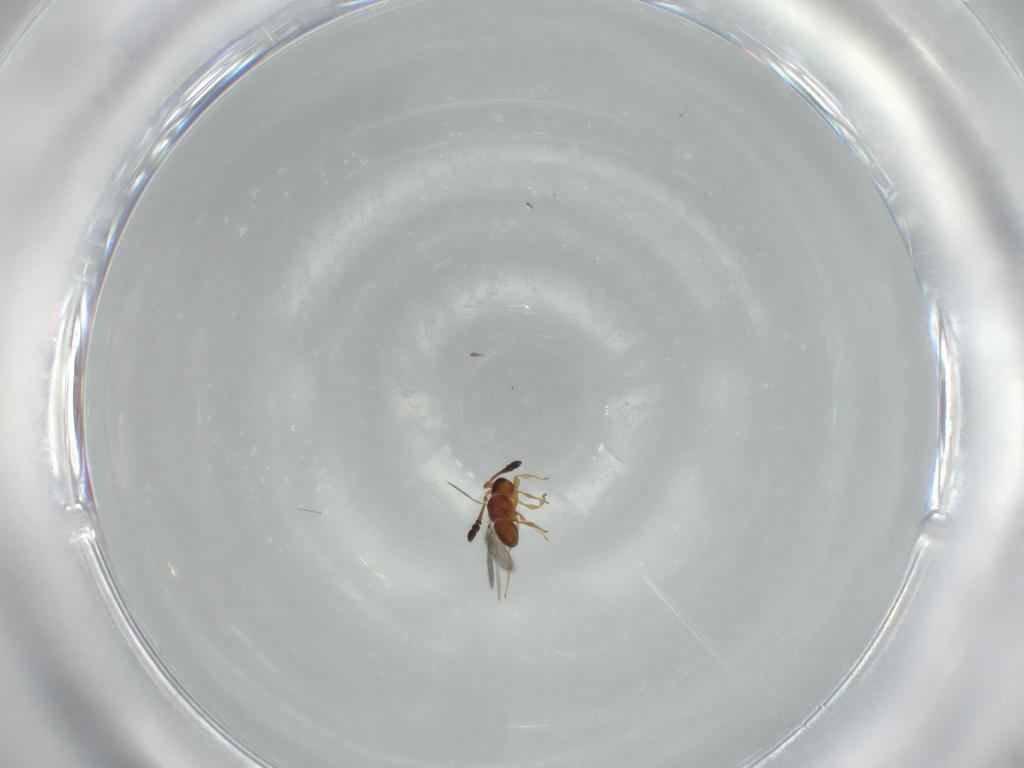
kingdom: Animalia
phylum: Arthropoda
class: Insecta
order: Hymenoptera
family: Diapriidae
